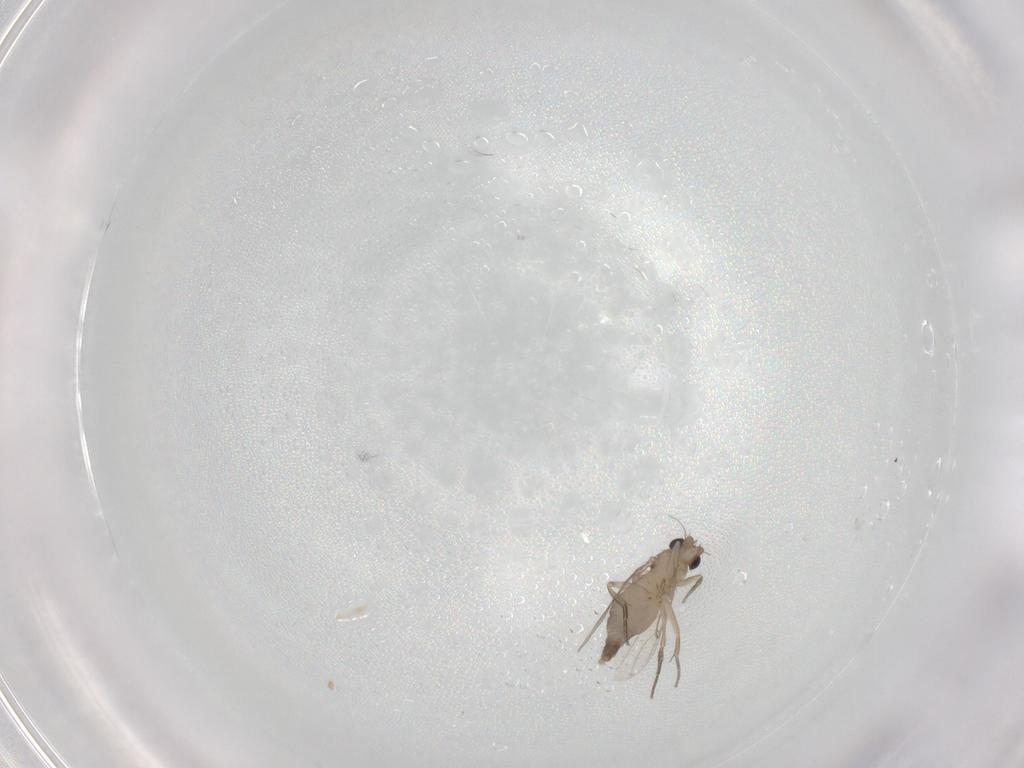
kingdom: Animalia
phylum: Arthropoda
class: Insecta
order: Diptera
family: Phoridae
